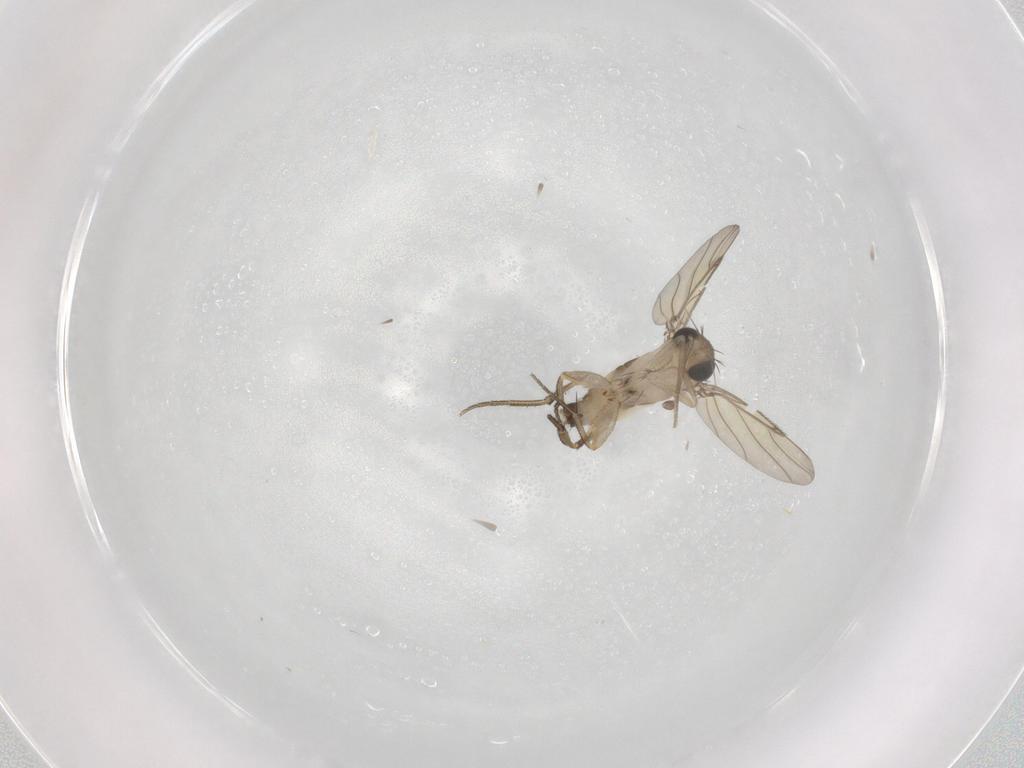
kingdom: Animalia
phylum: Arthropoda
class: Insecta
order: Diptera
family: Phoridae
